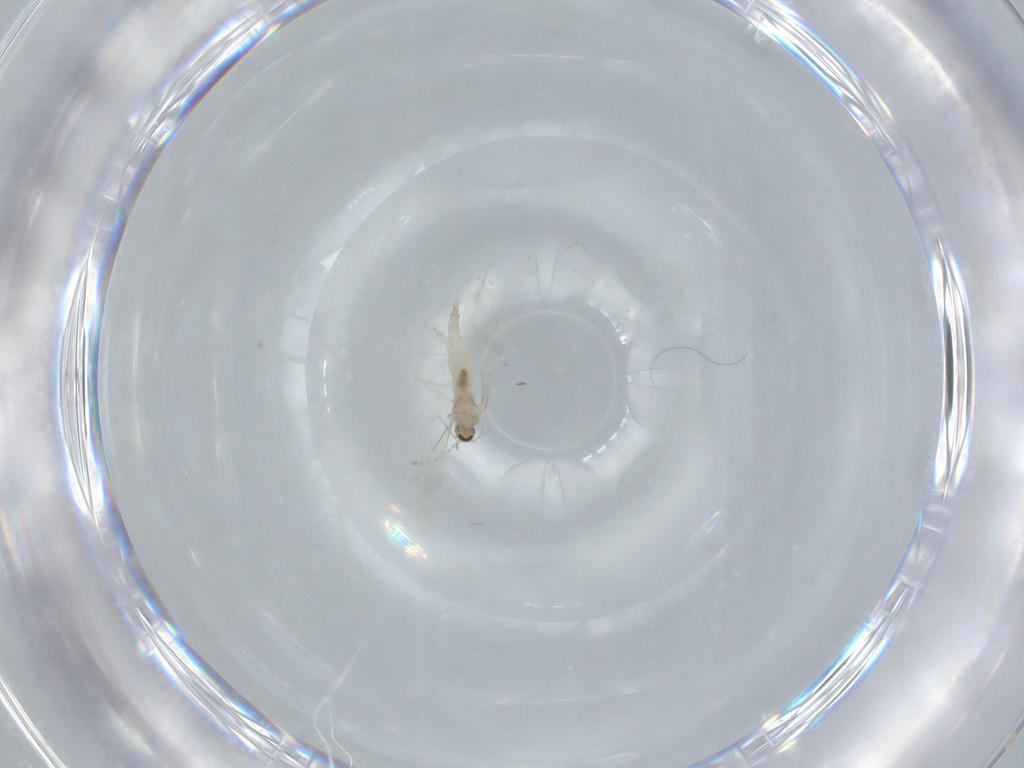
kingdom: Animalia
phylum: Arthropoda
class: Insecta
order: Diptera
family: Cecidomyiidae
